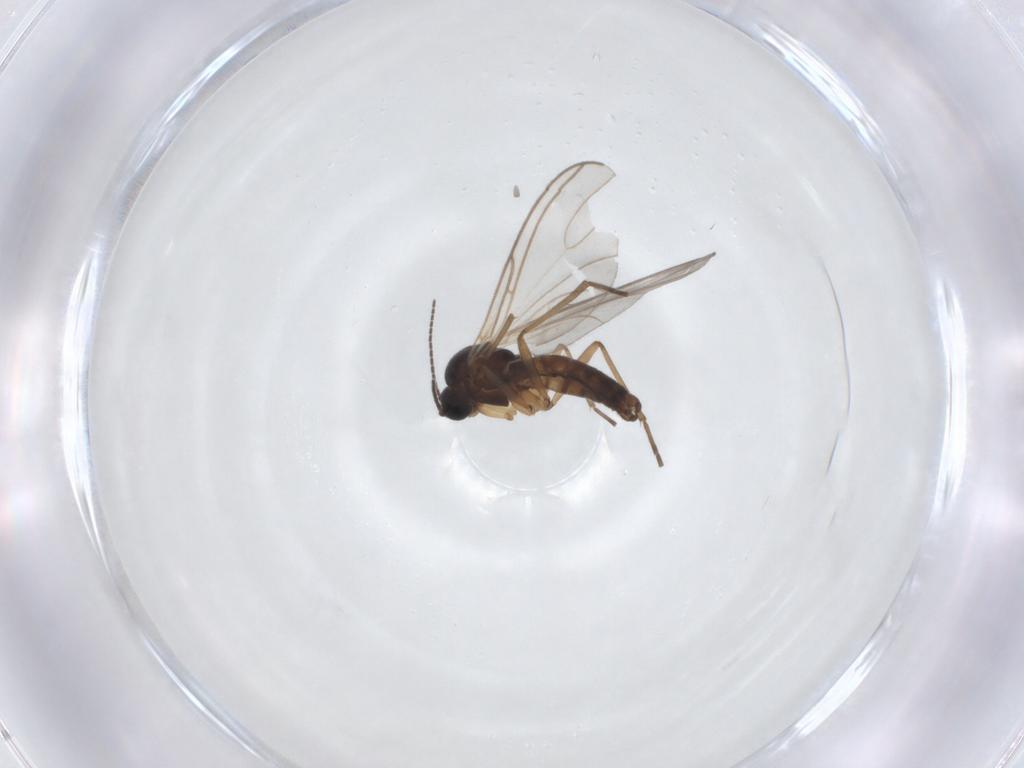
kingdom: Animalia
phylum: Arthropoda
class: Insecta
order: Diptera
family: Sciaridae
